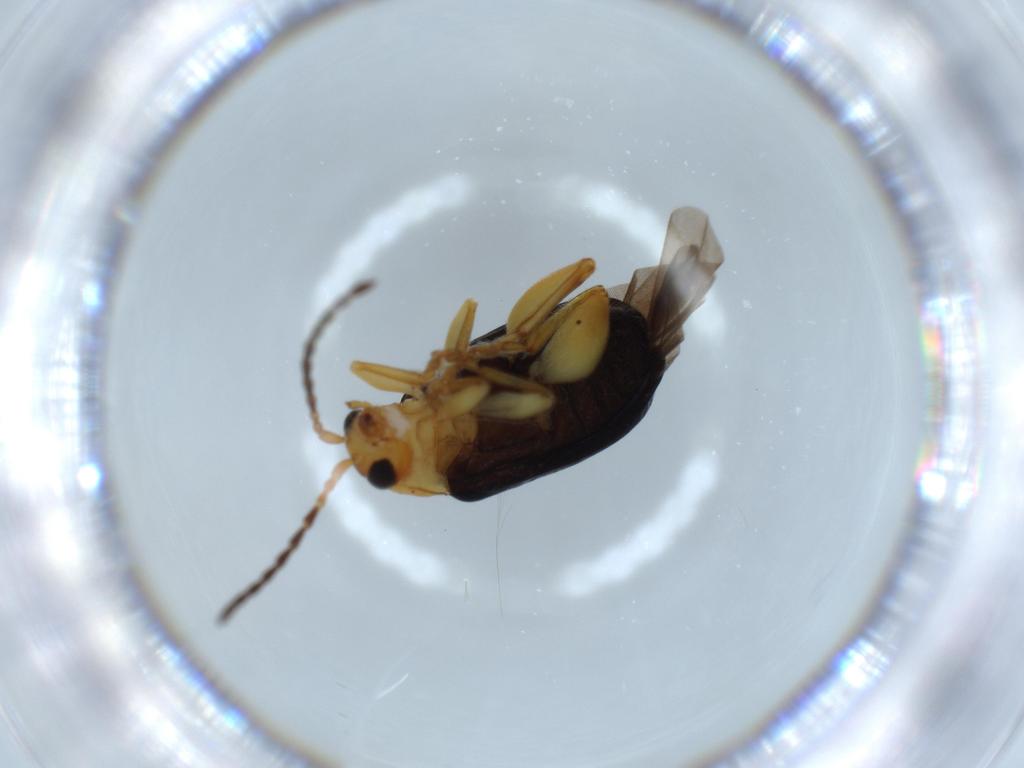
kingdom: Animalia
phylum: Arthropoda
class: Insecta
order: Coleoptera
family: Chrysomelidae
